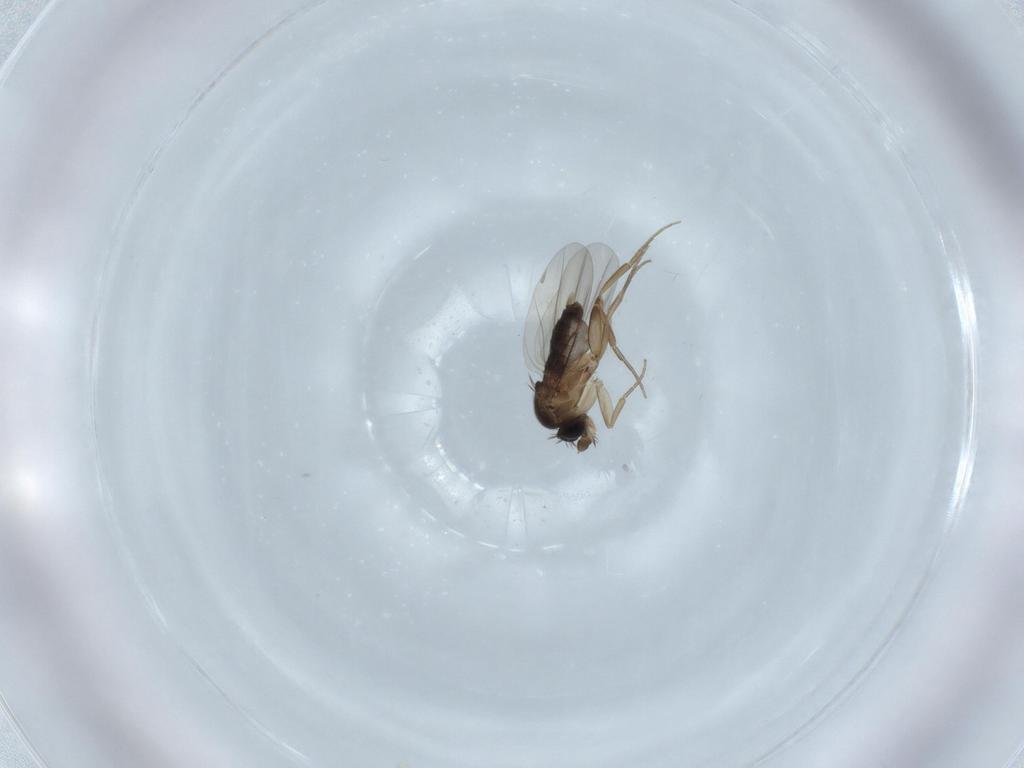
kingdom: Animalia
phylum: Arthropoda
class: Insecta
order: Diptera
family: Phoridae
